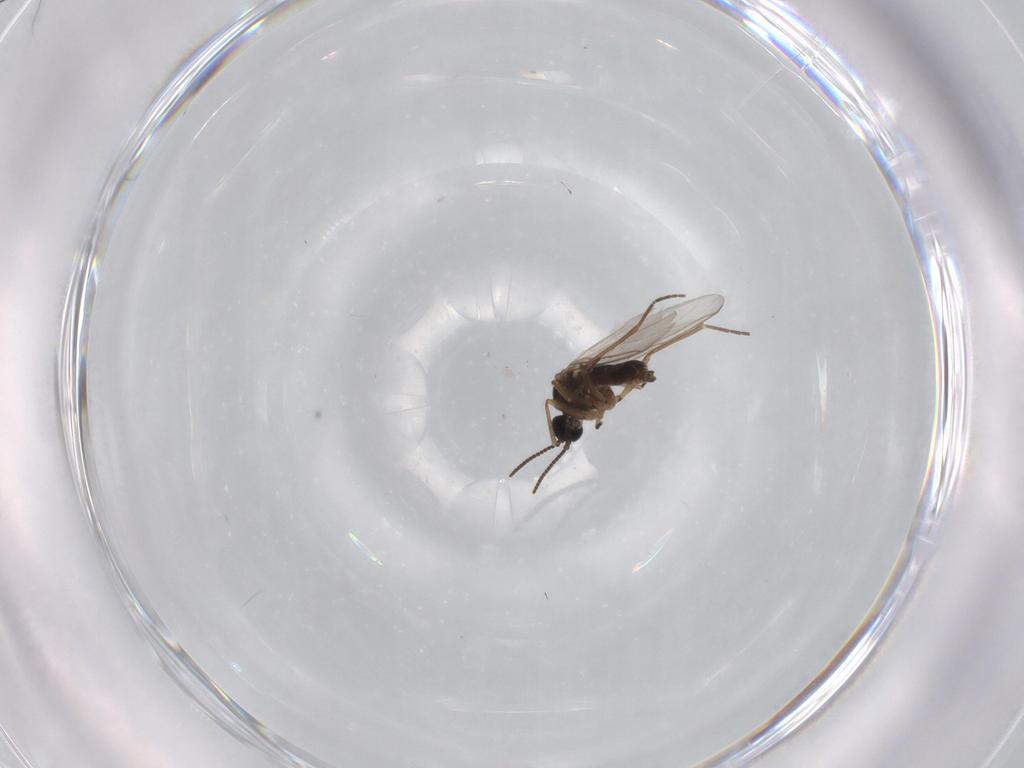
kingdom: Animalia
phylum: Arthropoda
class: Insecta
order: Diptera
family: Sciaridae
